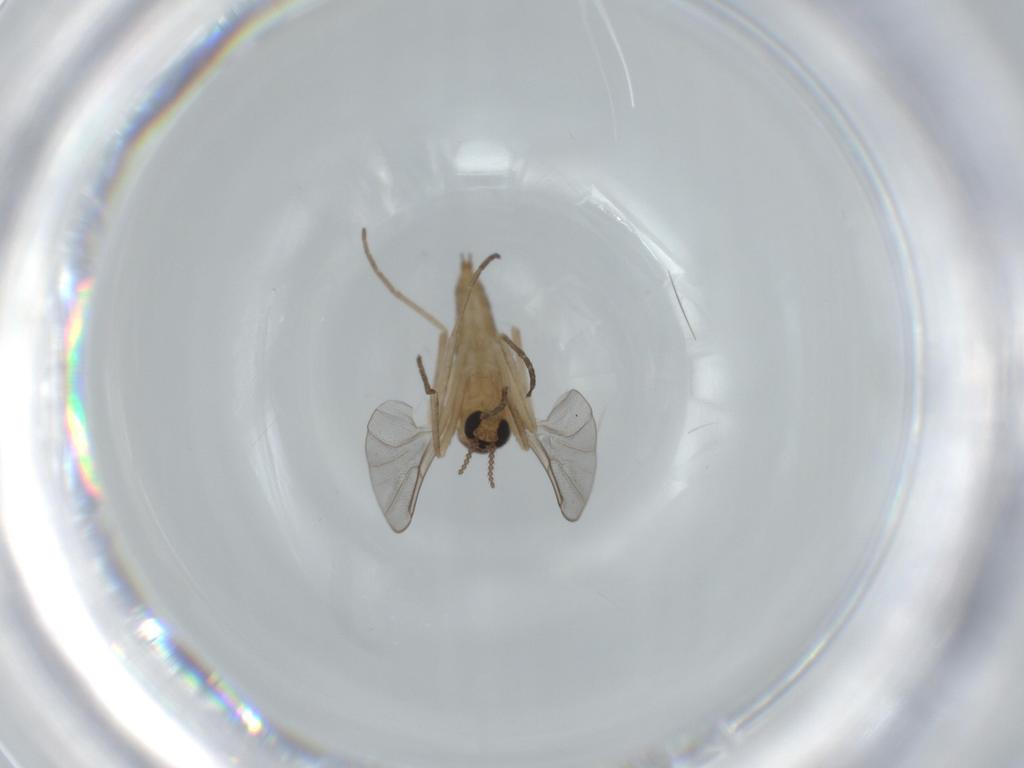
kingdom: Animalia
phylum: Arthropoda
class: Insecta
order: Diptera
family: Cecidomyiidae
